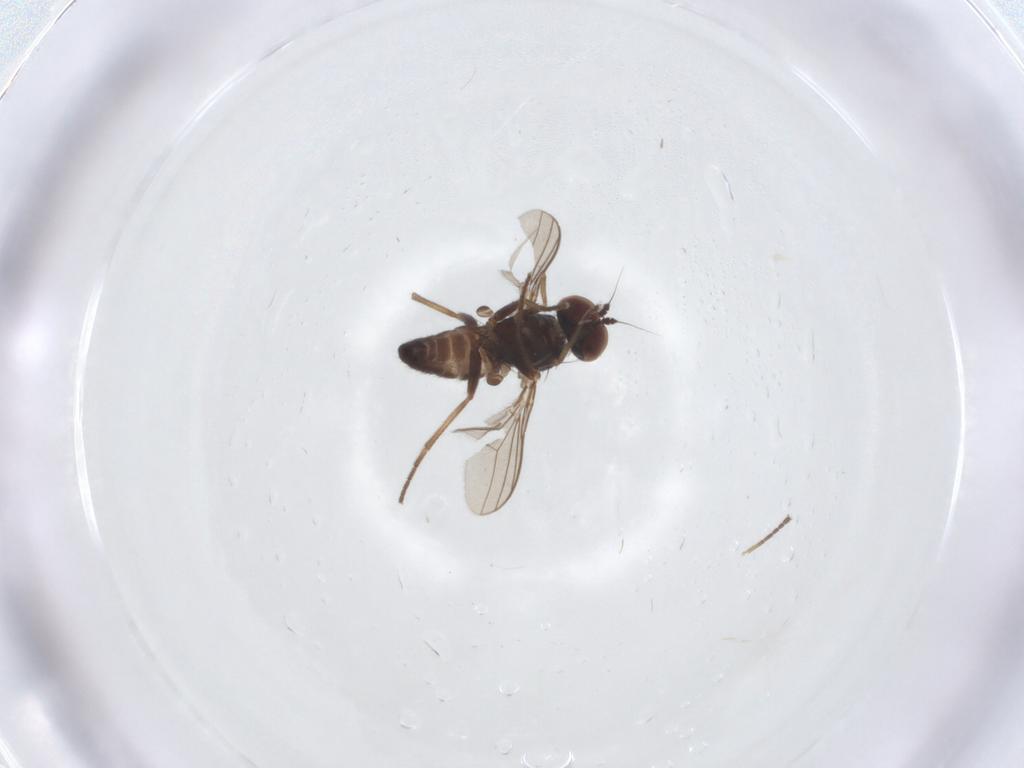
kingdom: Animalia
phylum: Arthropoda
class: Insecta
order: Diptera
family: Dolichopodidae
